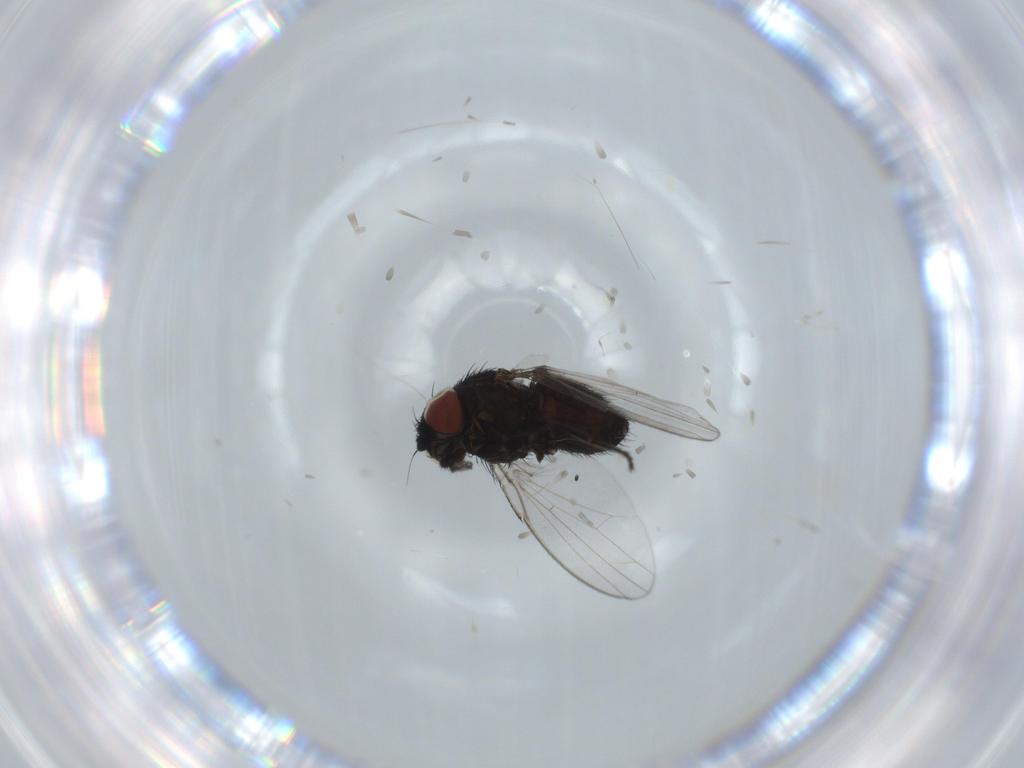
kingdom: Animalia
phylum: Arthropoda
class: Insecta
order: Diptera
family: Milichiidae
